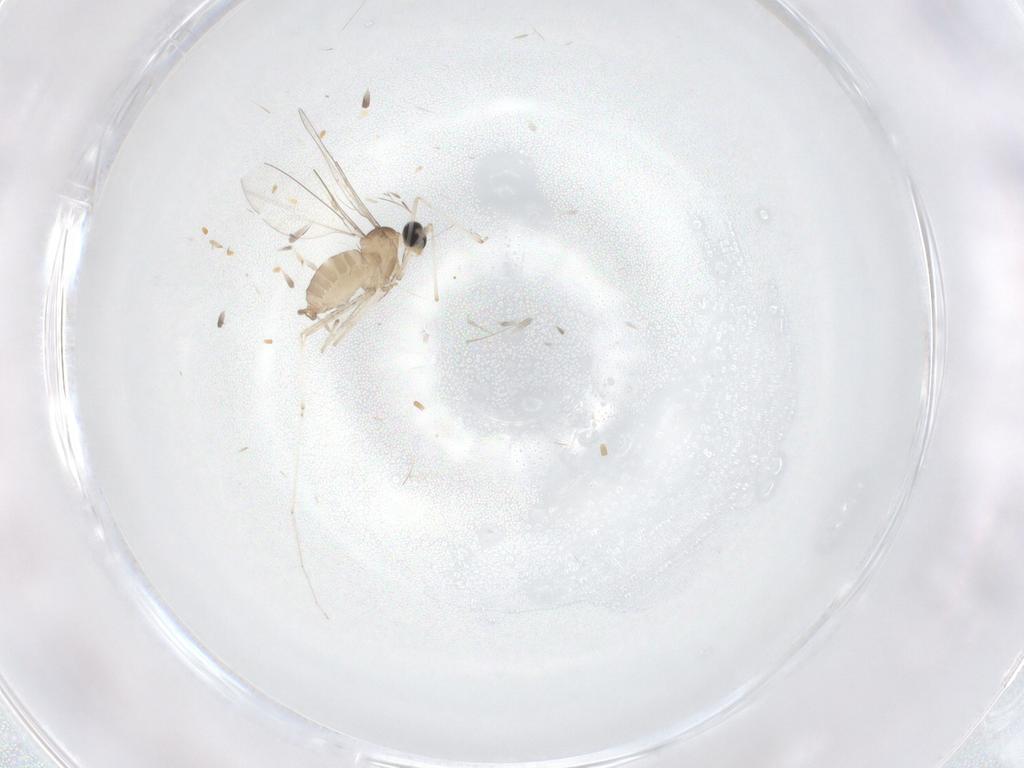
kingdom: Animalia
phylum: Arthropoda
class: Insecta
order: Diptera
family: Cecidomyiidae
